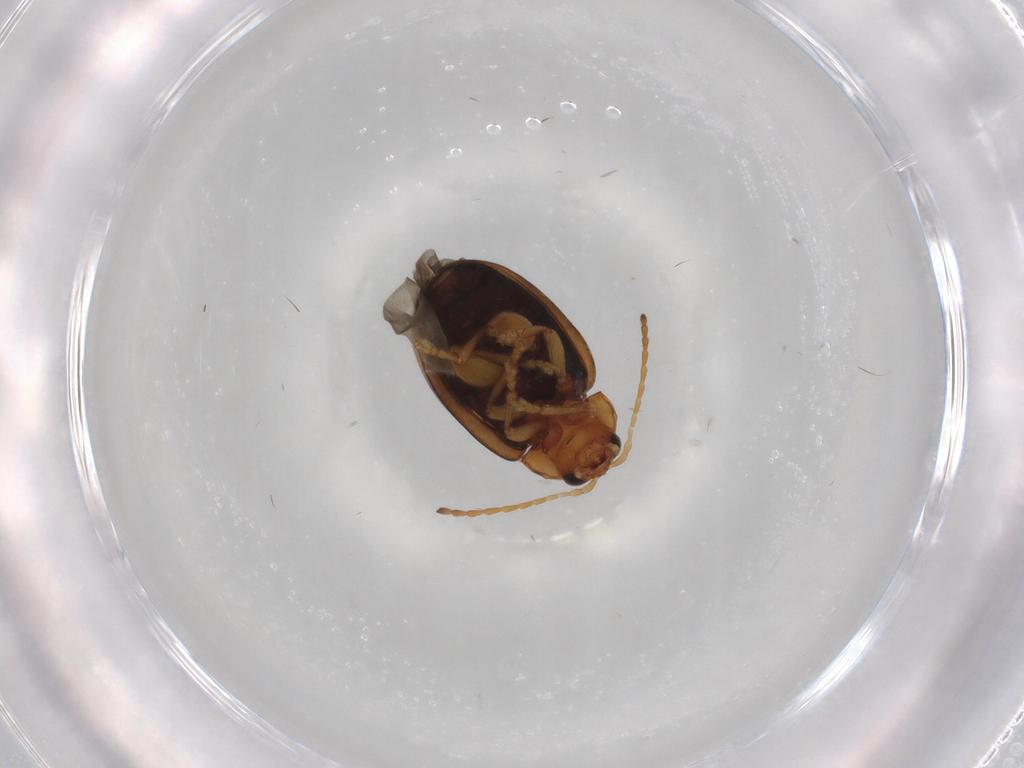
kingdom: Animalia
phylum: Arthropoda
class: Insecta
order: Coleoptera
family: Chrysomelidae
